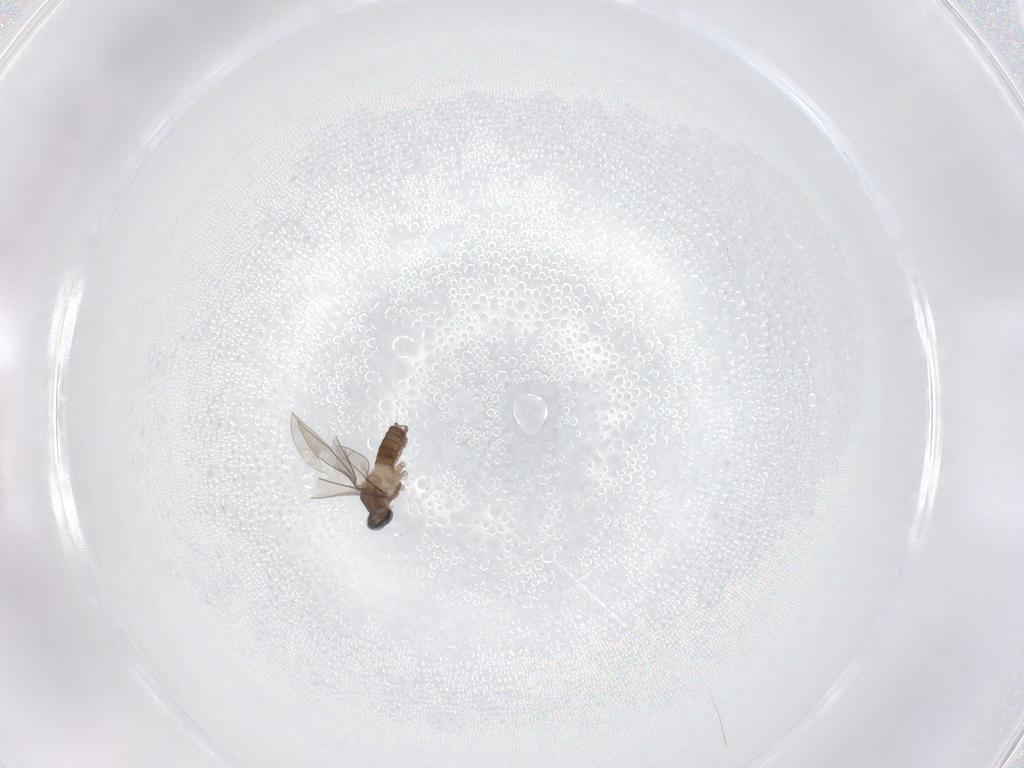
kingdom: Animalia
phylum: Arthropoda
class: Insecta
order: Diptera
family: Cecidomyiidae
